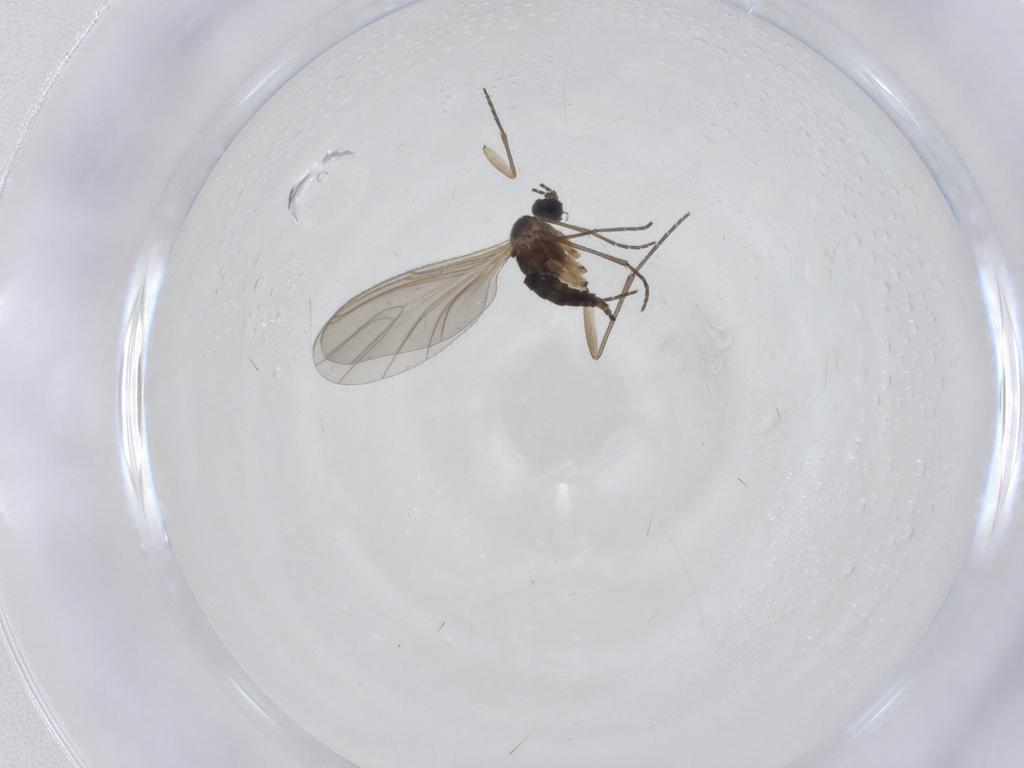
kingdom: Animalia
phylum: Arthropoda
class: Insecta
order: Diptera
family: Sciaridae
